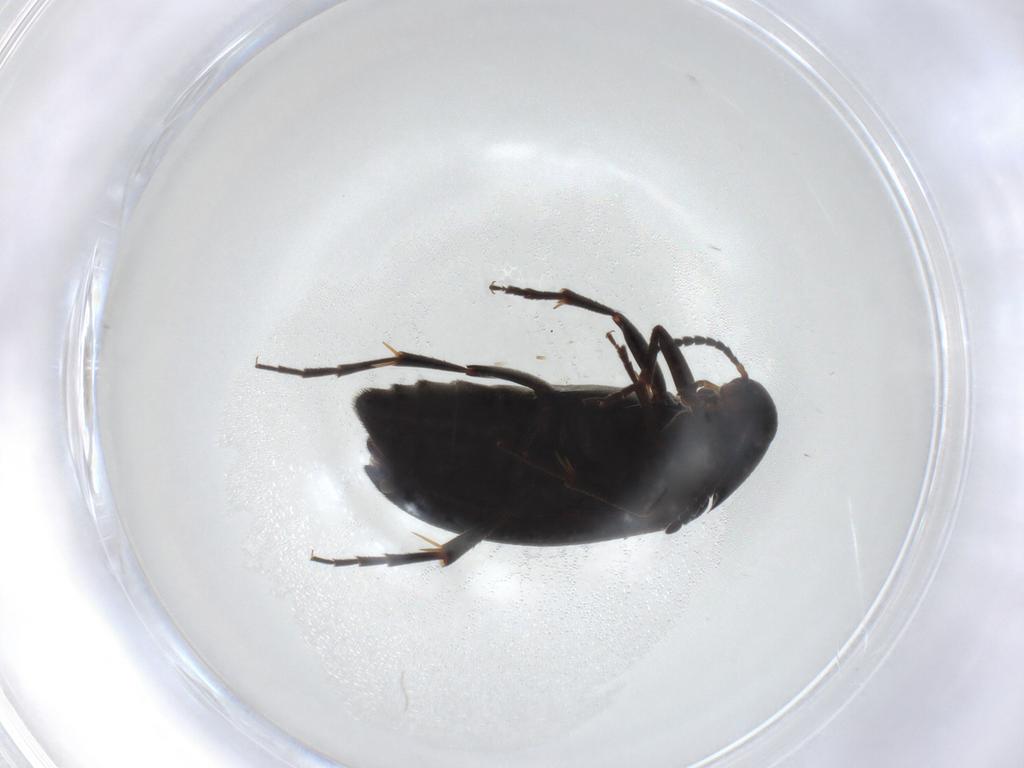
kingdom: Animalia
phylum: Arthropoda
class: Insecta
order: Coleoptera
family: Scraptiidae
